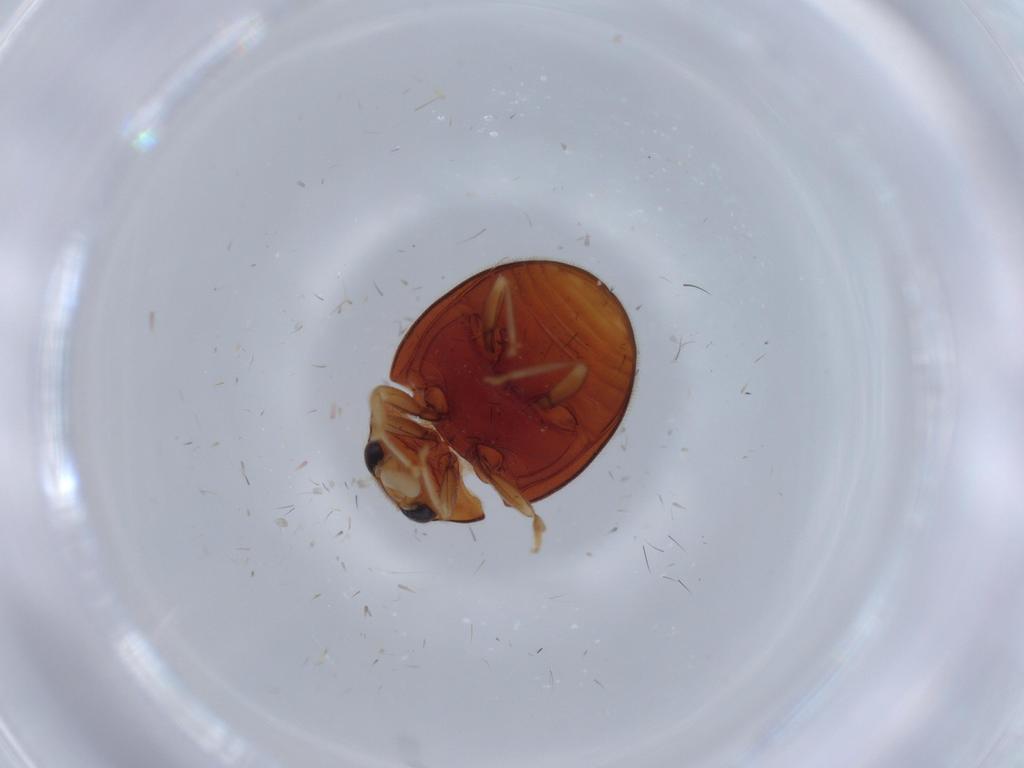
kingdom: Animalia
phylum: Arthropoda
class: Insecta
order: Coleoptera
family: Coccinellidae
